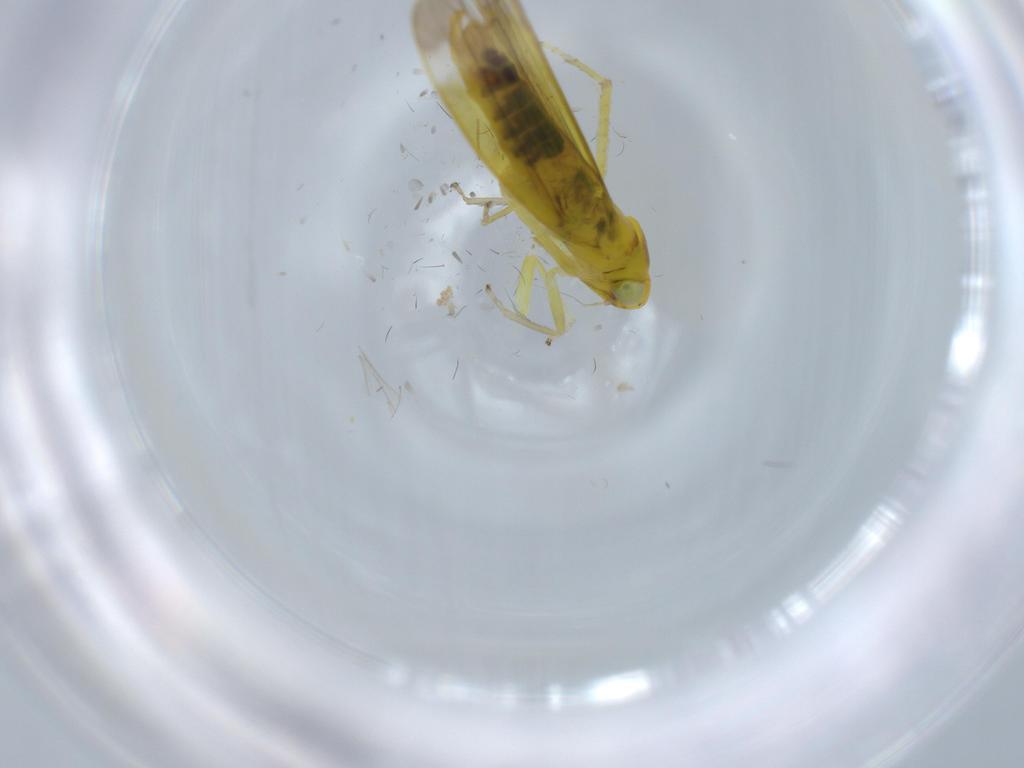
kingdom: Animalia
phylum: Arthropoda
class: Insecta
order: Hemiptera
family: Cicadellidae
